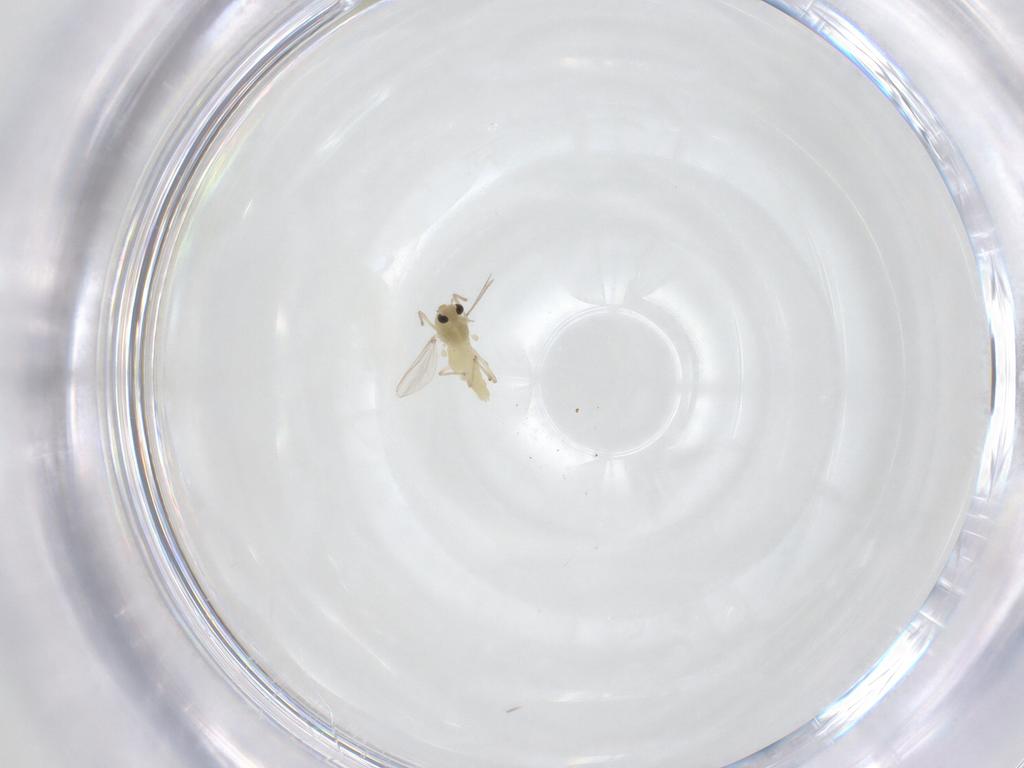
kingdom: Animalia
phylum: Arthropoda
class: Insecta
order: Diptera
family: Chironomidae
